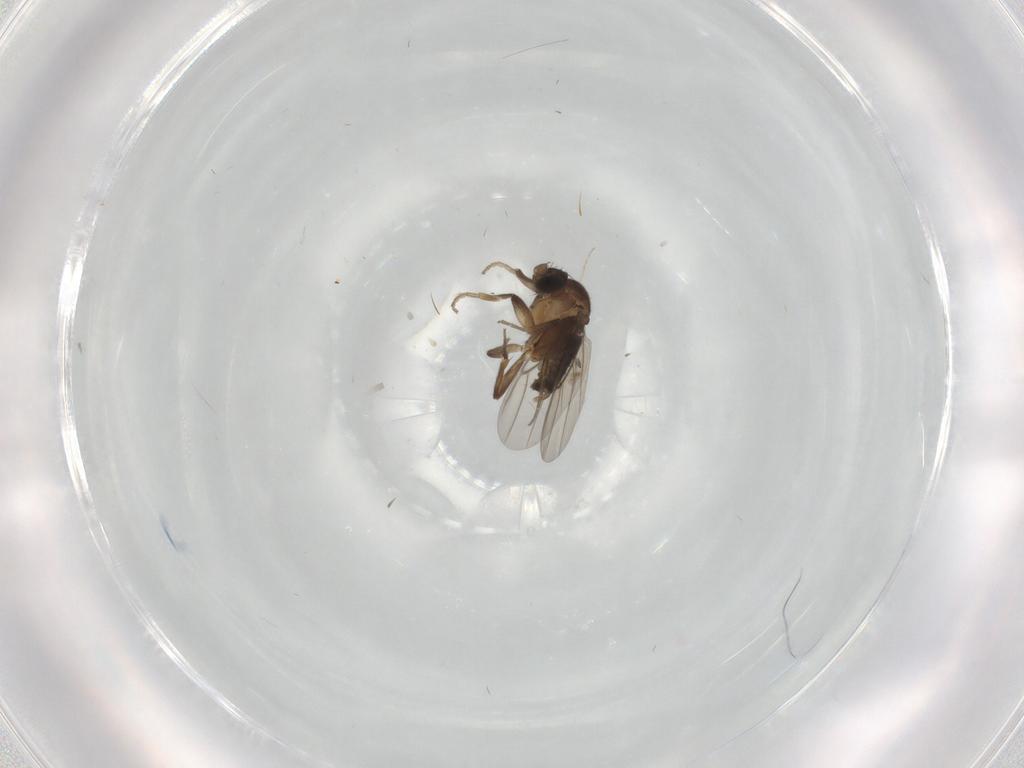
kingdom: Animalia
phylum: Arthropoda
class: Insecta
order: Diptera
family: Phoridae
